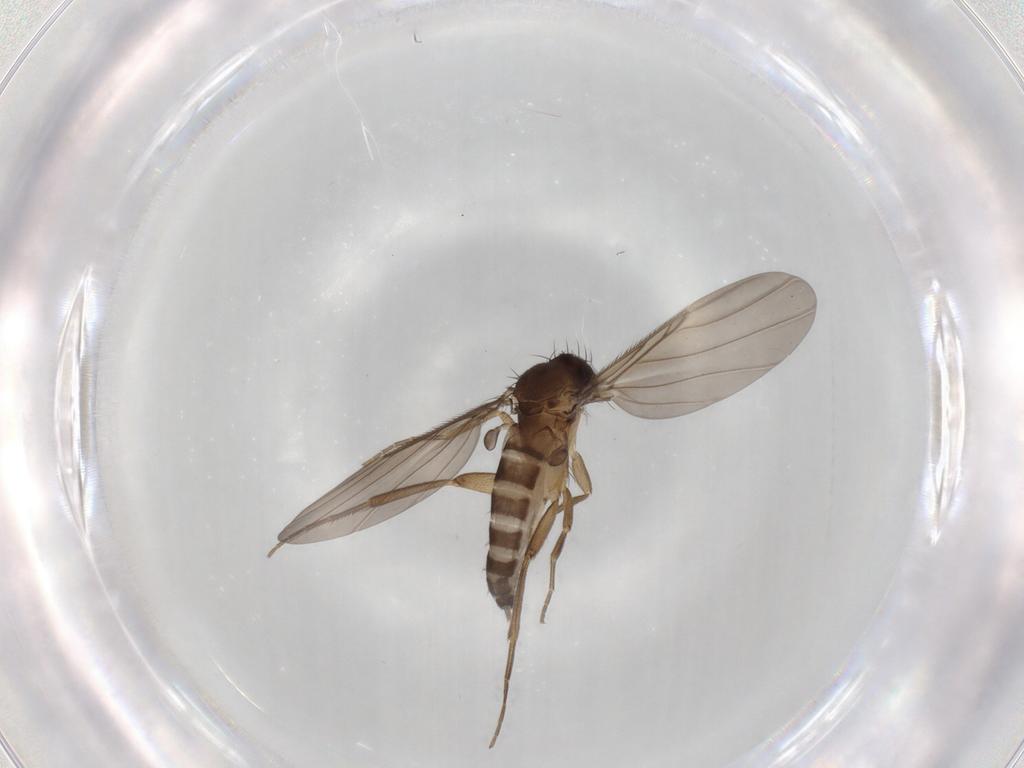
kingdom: Animalia
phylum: Arthropoda
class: Insecta
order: Diptera
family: Phoridae
